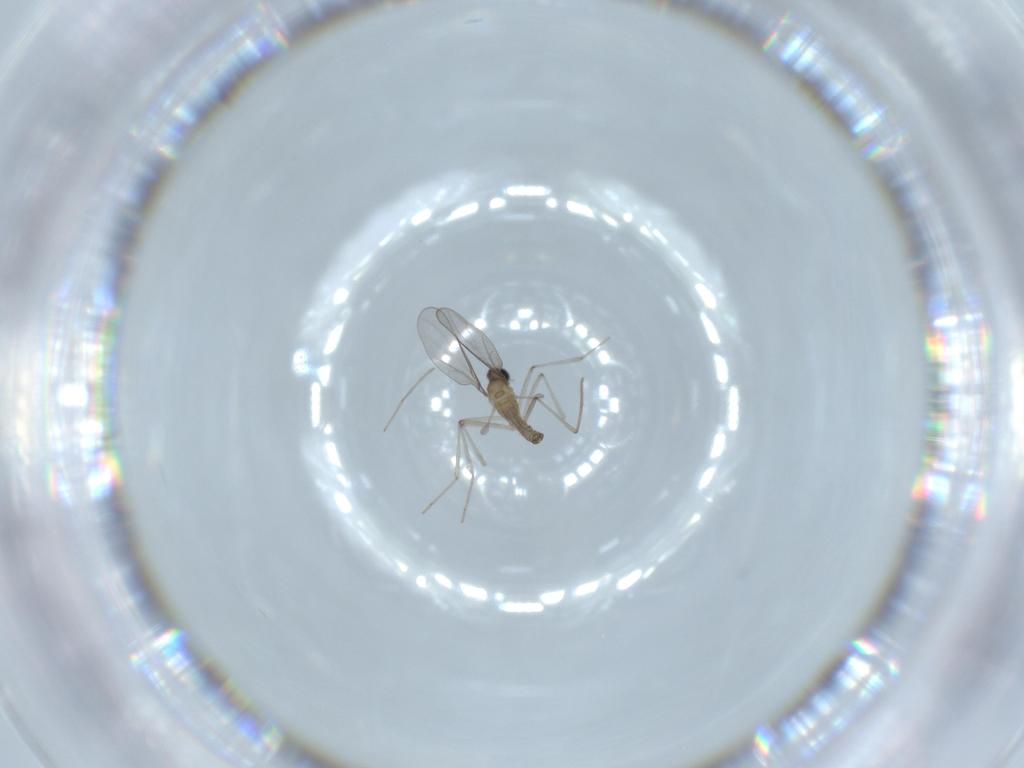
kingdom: Animalia
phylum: Arthropoda
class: Insecta
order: Diptera
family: Cecidomyiidae
